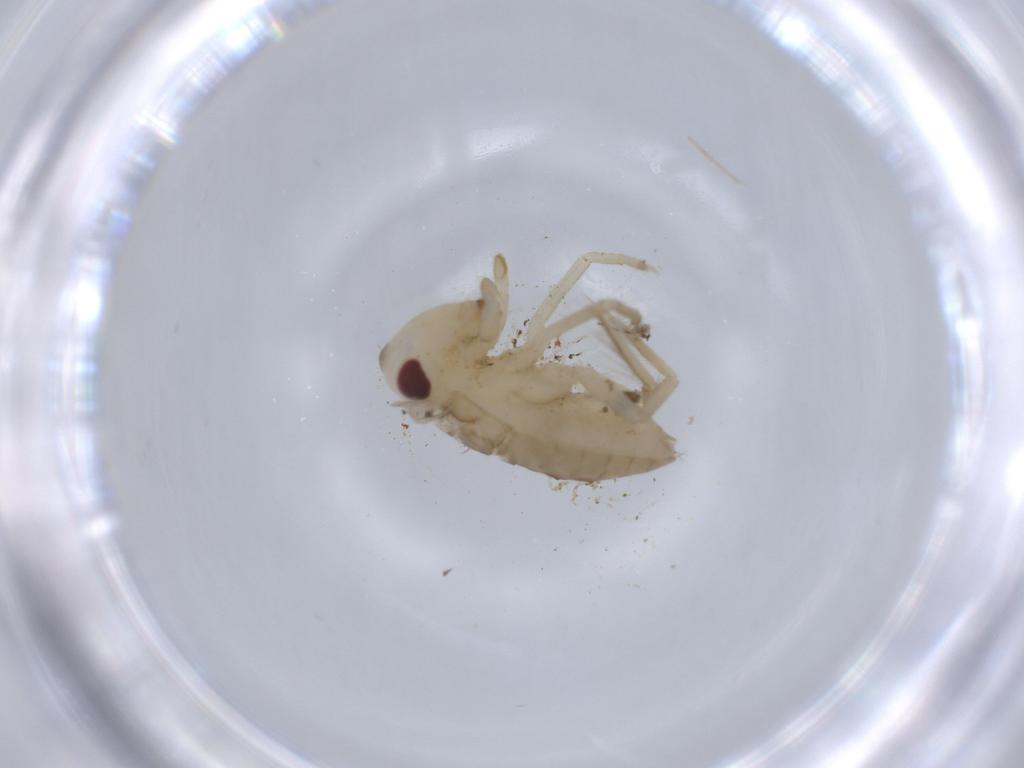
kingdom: Animalia
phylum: Arthropoda
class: Insecta
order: Hemiptera
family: Corixidae
